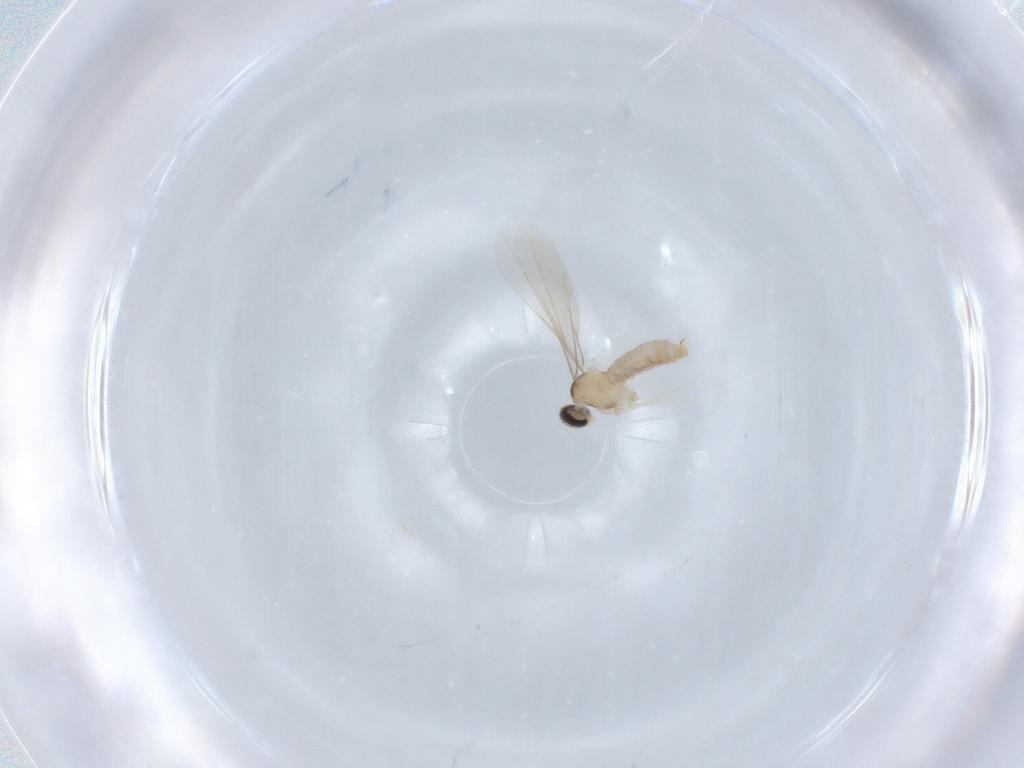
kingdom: Animalia
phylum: Arthropoda
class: Insecta
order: Diptera
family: Cecidomyiidae
